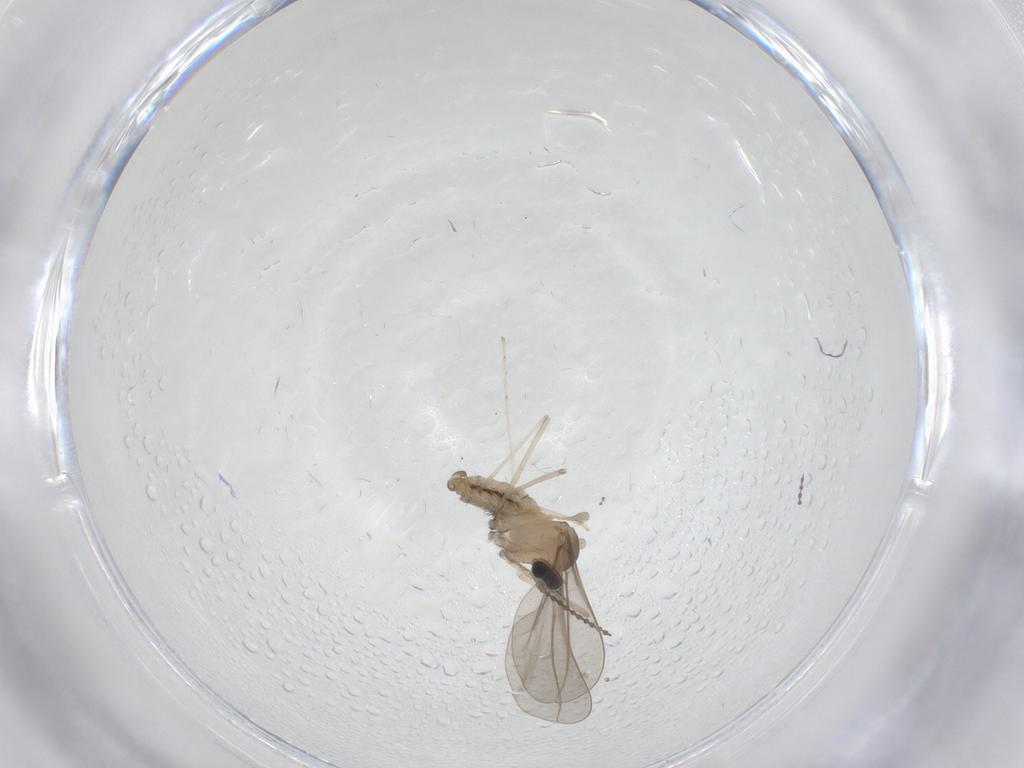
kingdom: Animalia
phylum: Arthropoda
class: Insecta
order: Diptera
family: Cecidomyiidae
